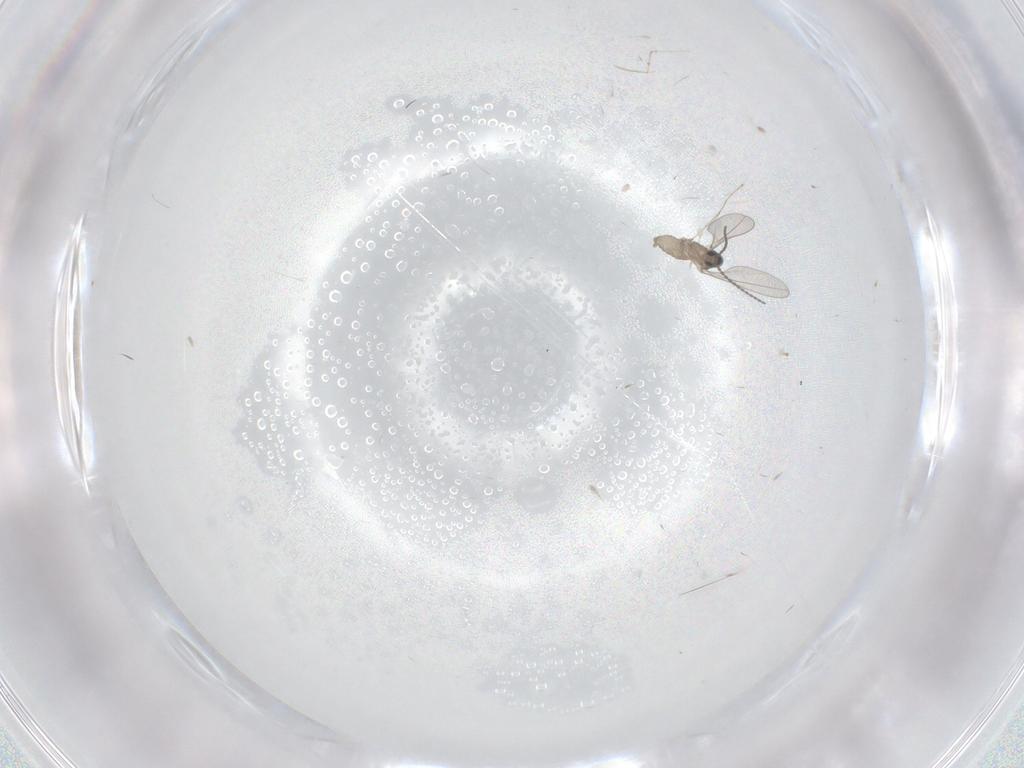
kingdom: Animalia
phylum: Arthropoda
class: Insecta
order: Diptera
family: Cecidomyiidae
